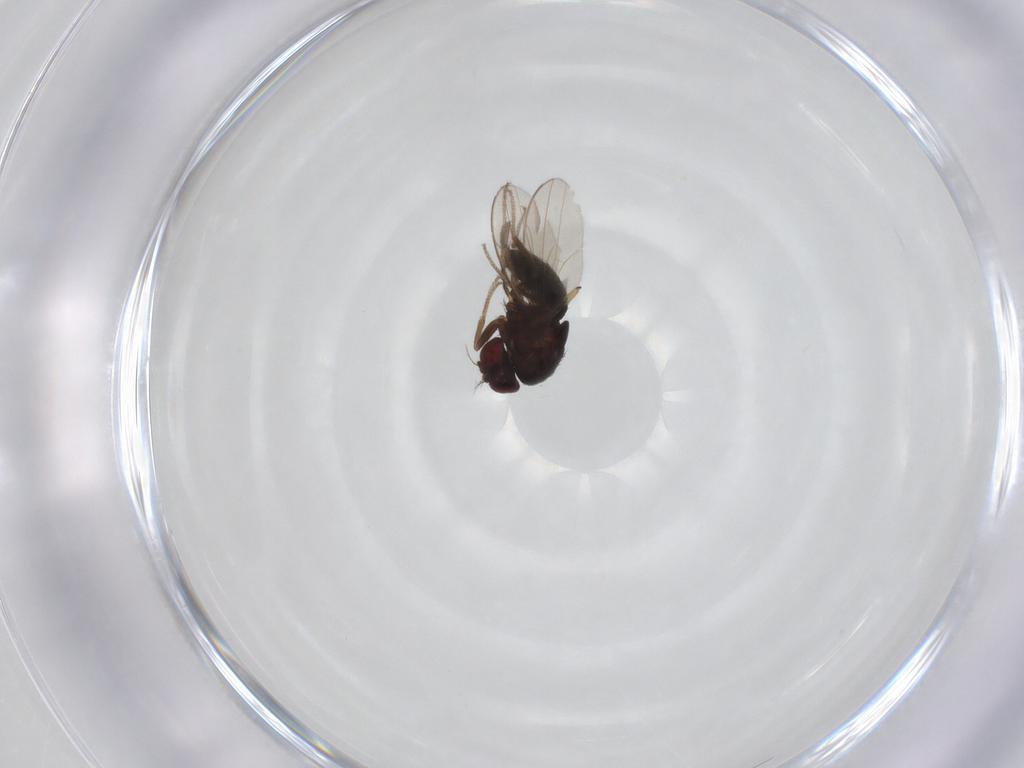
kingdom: Animalia
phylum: Arthropoda
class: Insecta
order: Diptera
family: Drosophilidae
